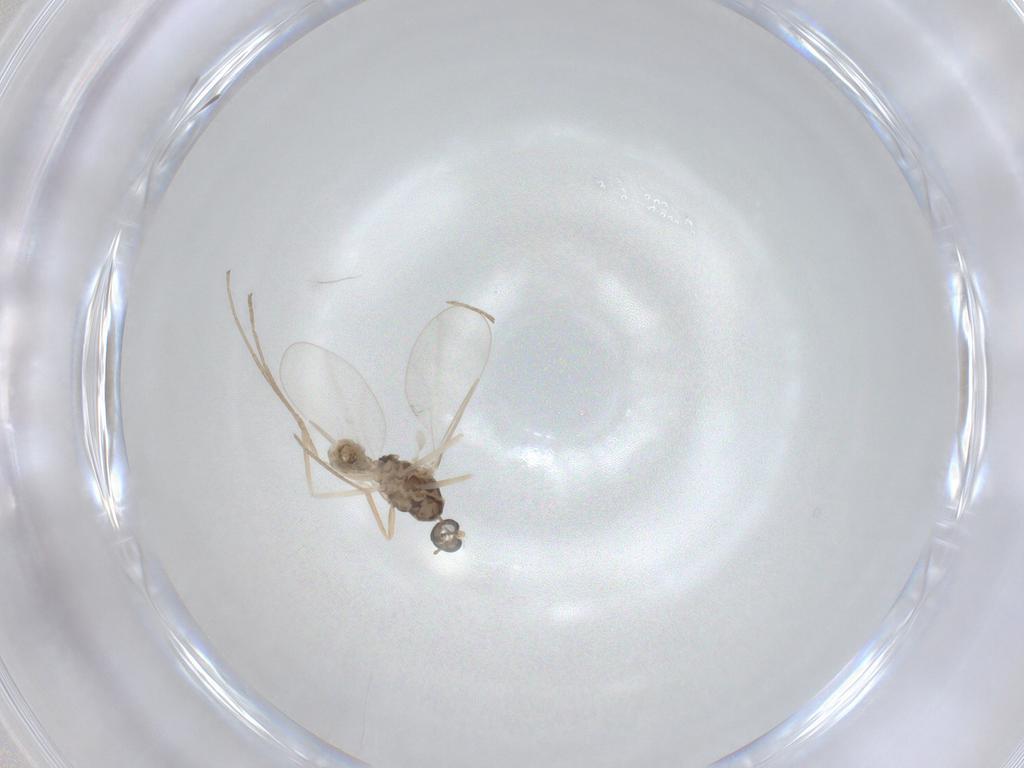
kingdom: Animalia
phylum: Arthropoda
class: Insecta
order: Diptera
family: Cecidomyiidae
